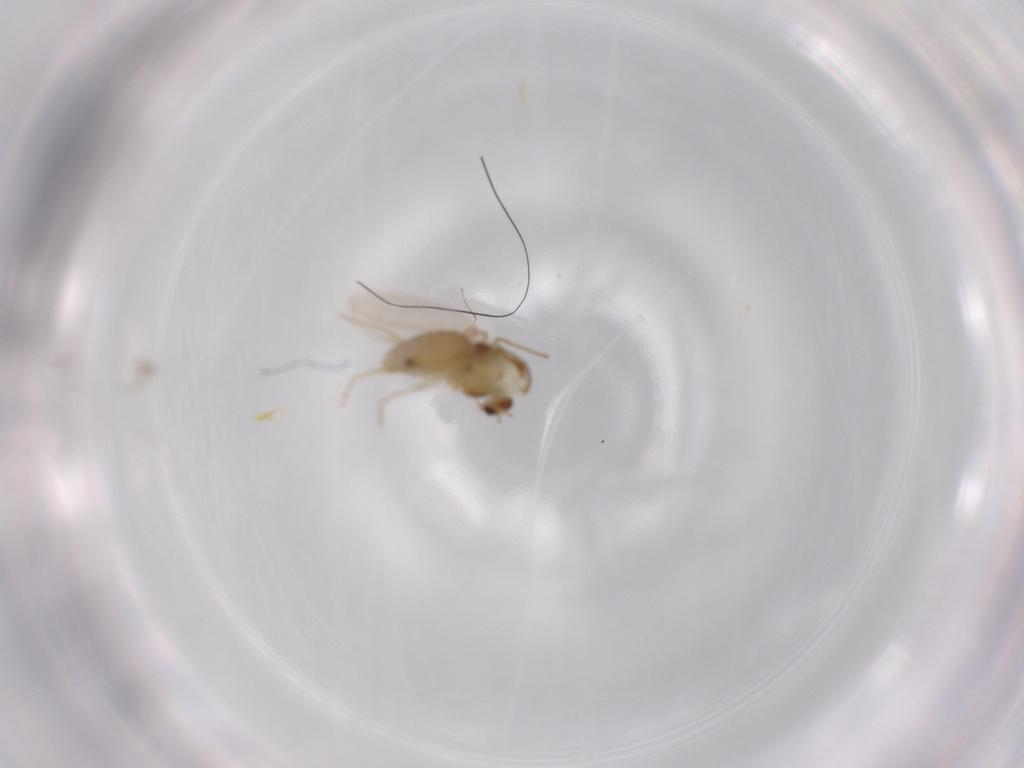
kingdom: Animalia
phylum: Arthropoda
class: Insecta
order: Diptera
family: Chironomidae
